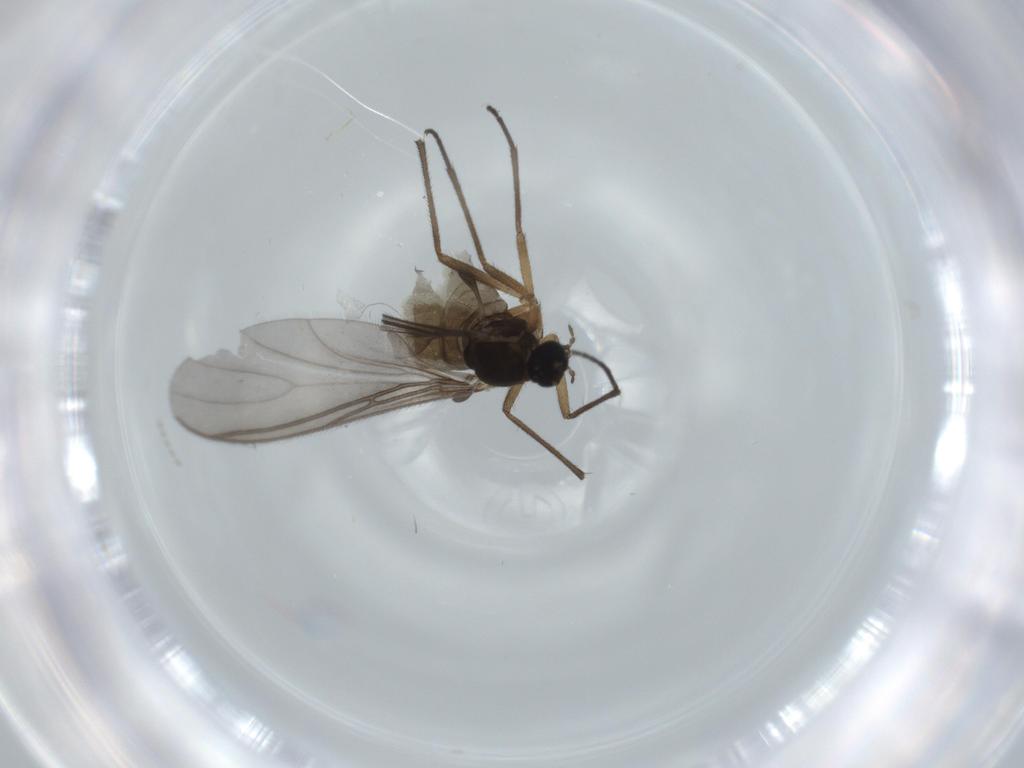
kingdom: Animalia
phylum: Arthropoda
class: Insecta
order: Diptera
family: Sciaridae
